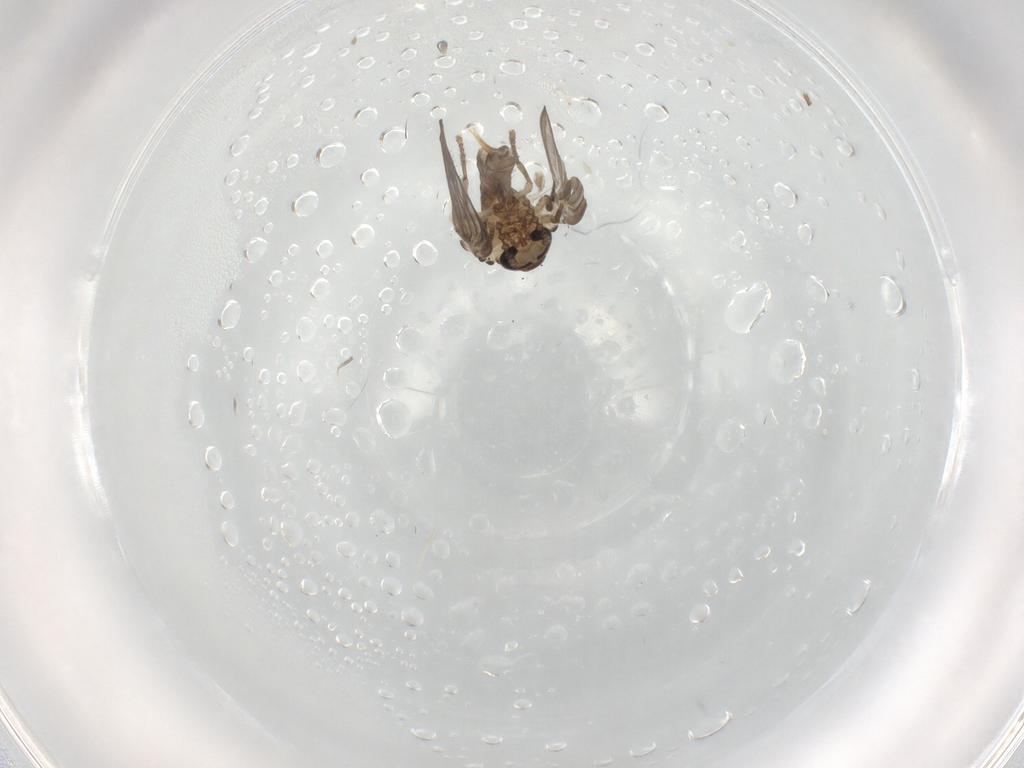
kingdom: Animalia
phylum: Arthropoda
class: Insecta
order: Diptera
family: Psychodidae
